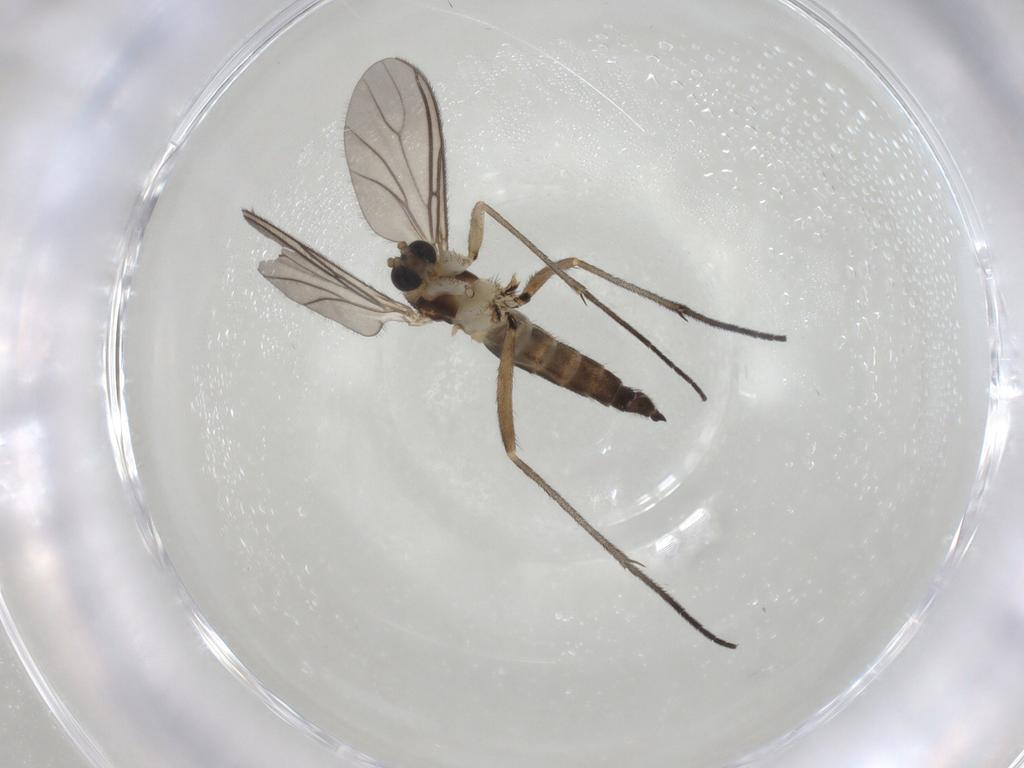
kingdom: Animalia
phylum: Arthropoda
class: Insecta
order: Diptera
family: Sciaridae
